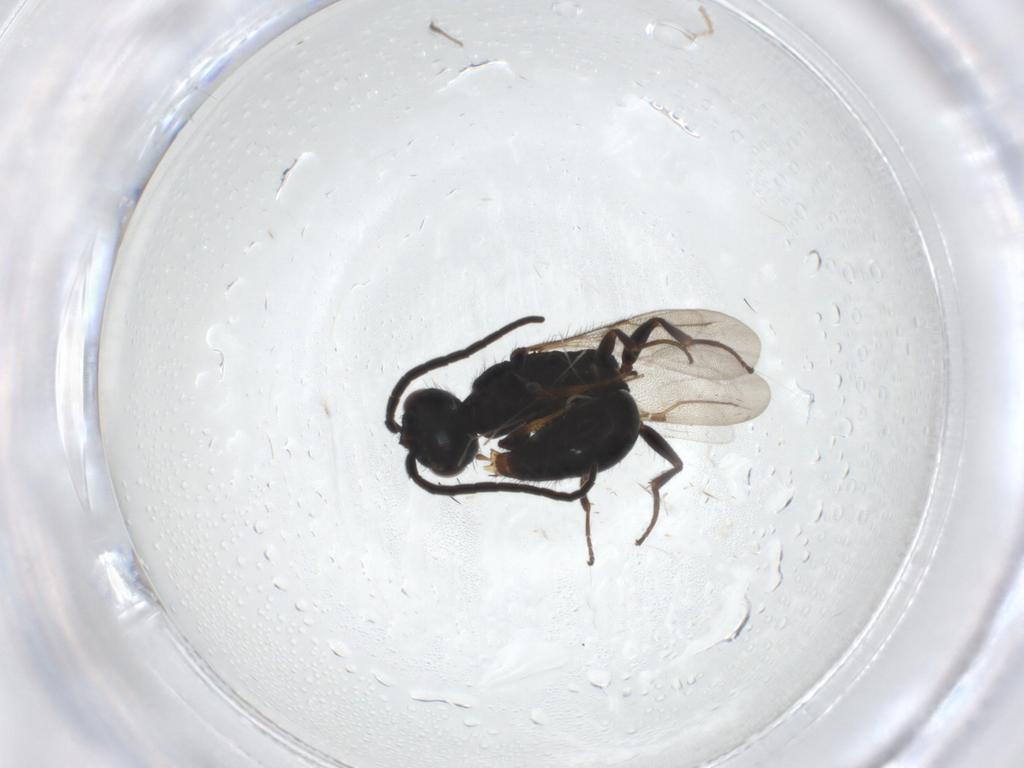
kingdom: Animalia
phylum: Arthropoda
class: Insecta
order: Hymenoptera
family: Bethylidae
